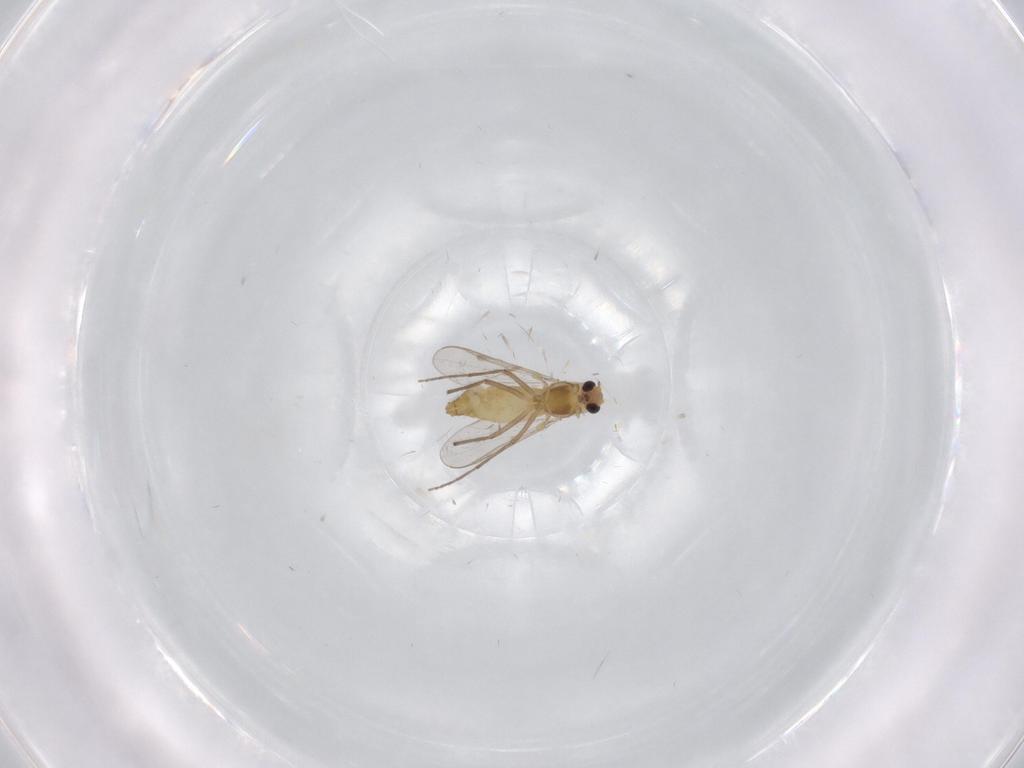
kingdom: Animalia
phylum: Arthropoda
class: Insecta
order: Diptera
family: Chironomidae
